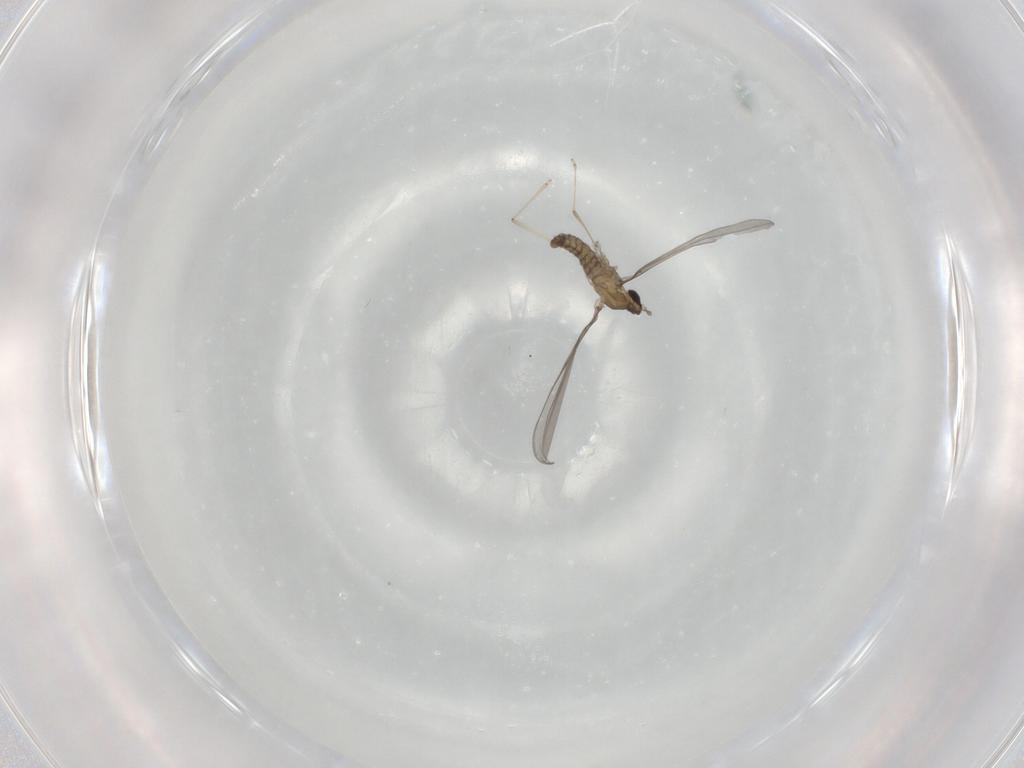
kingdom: Animalia
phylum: Arthropoda
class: Insecta
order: Diptera
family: Cecidomyiidae
